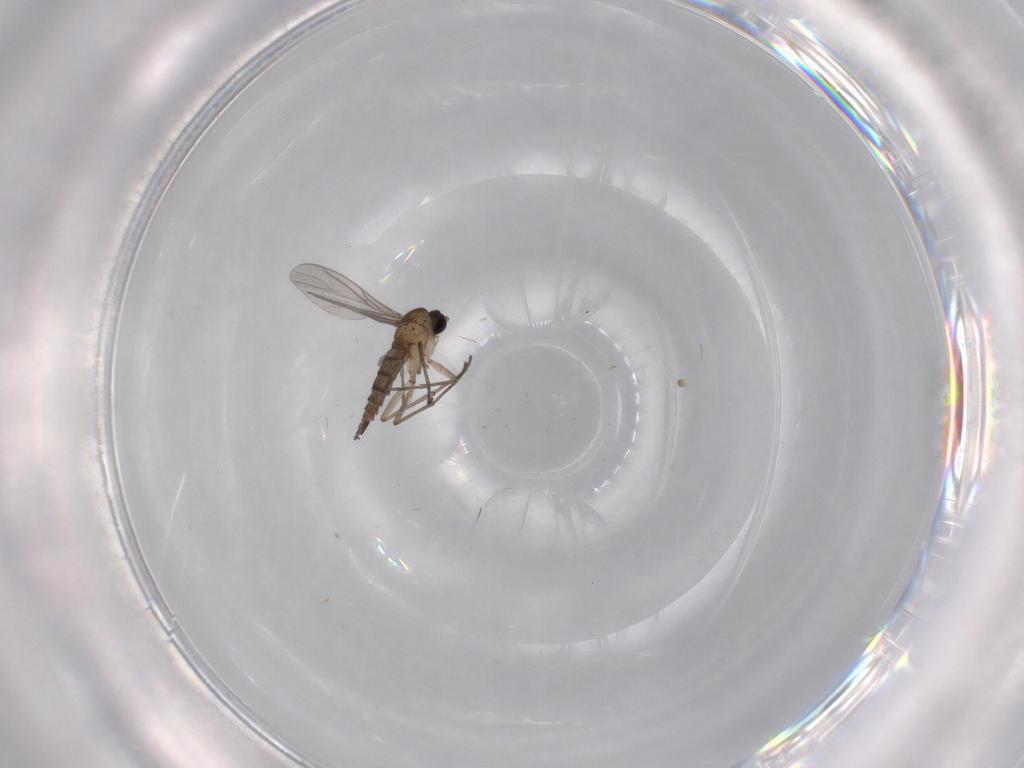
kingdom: Animalia
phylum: Arthropoda
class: Insecta
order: Diptera
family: Sciaridae
